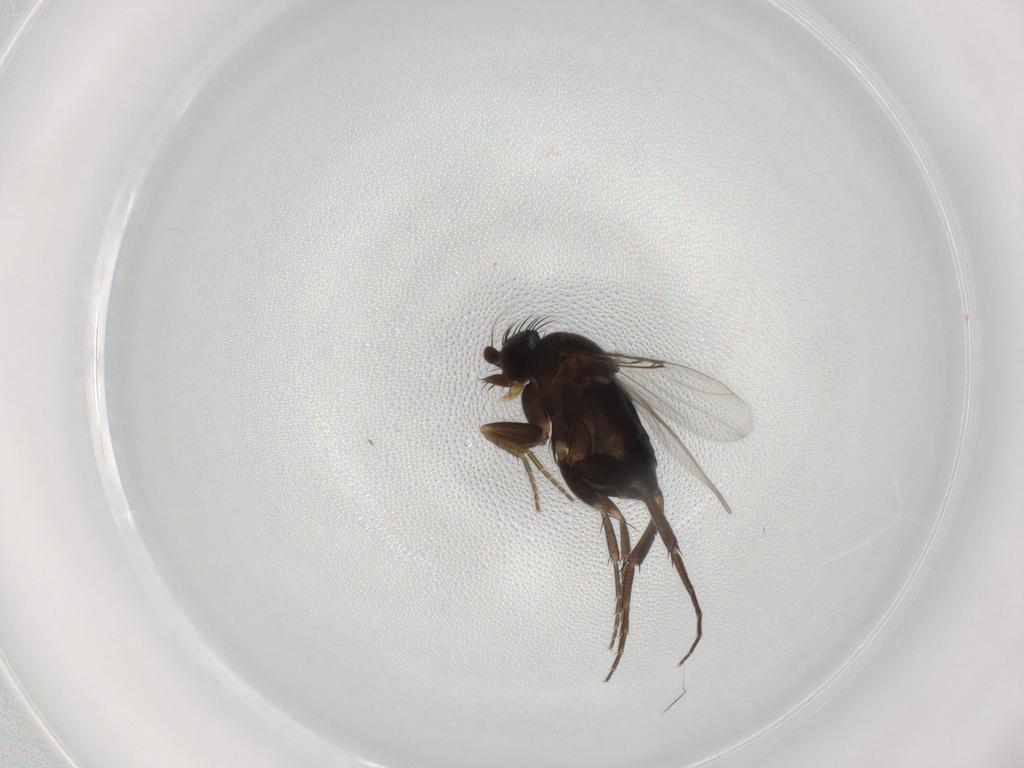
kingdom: Animalia
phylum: Arthropoda
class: Insecta
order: Diptera
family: Phoridae
